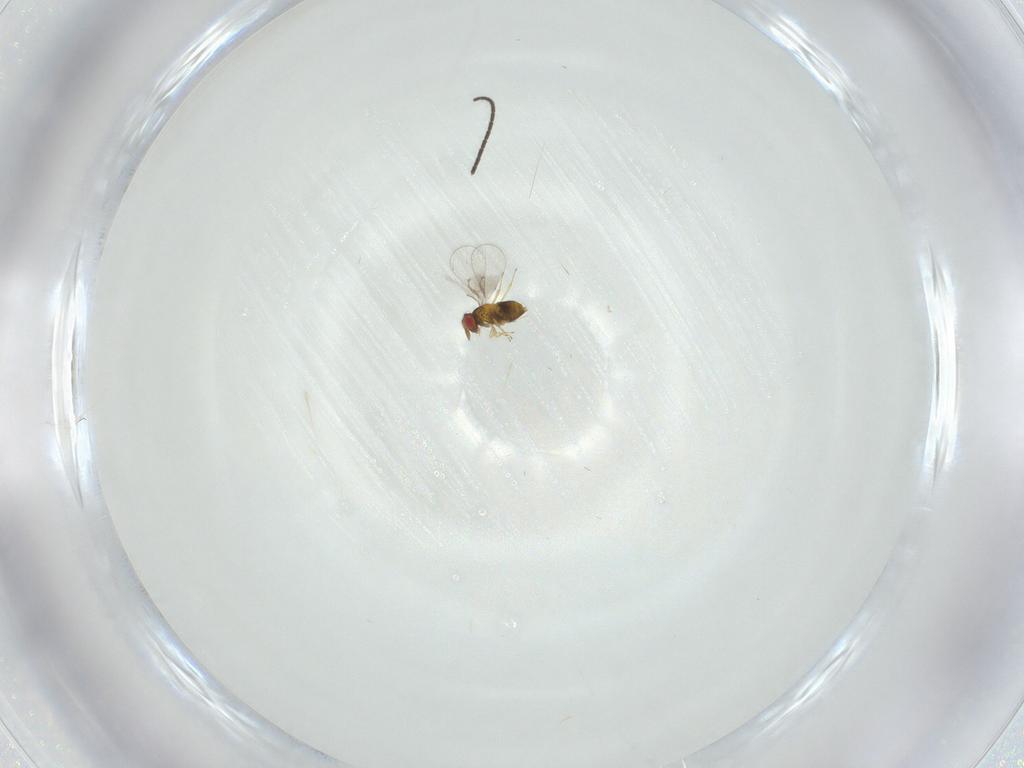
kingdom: Animalia
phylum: Arthropoda
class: Insecta
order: Hymenoptera
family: Trichogrammatidae
